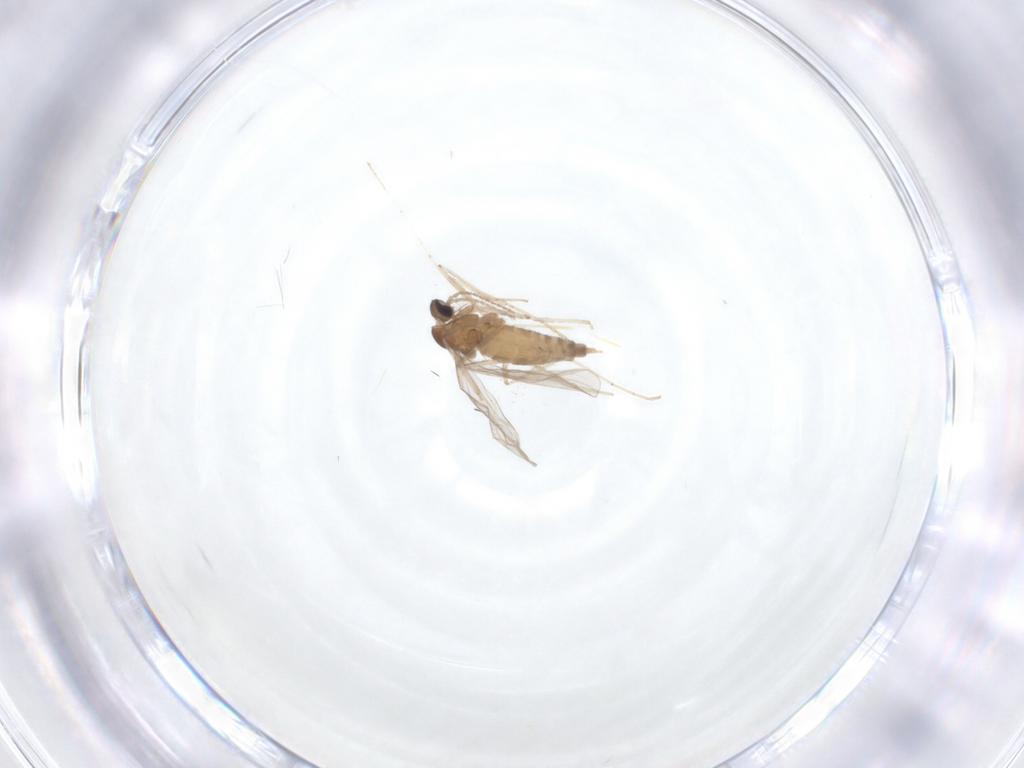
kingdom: Animalia
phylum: Arthropoda
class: Insecta
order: Diptera
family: Cecidomyiidae
